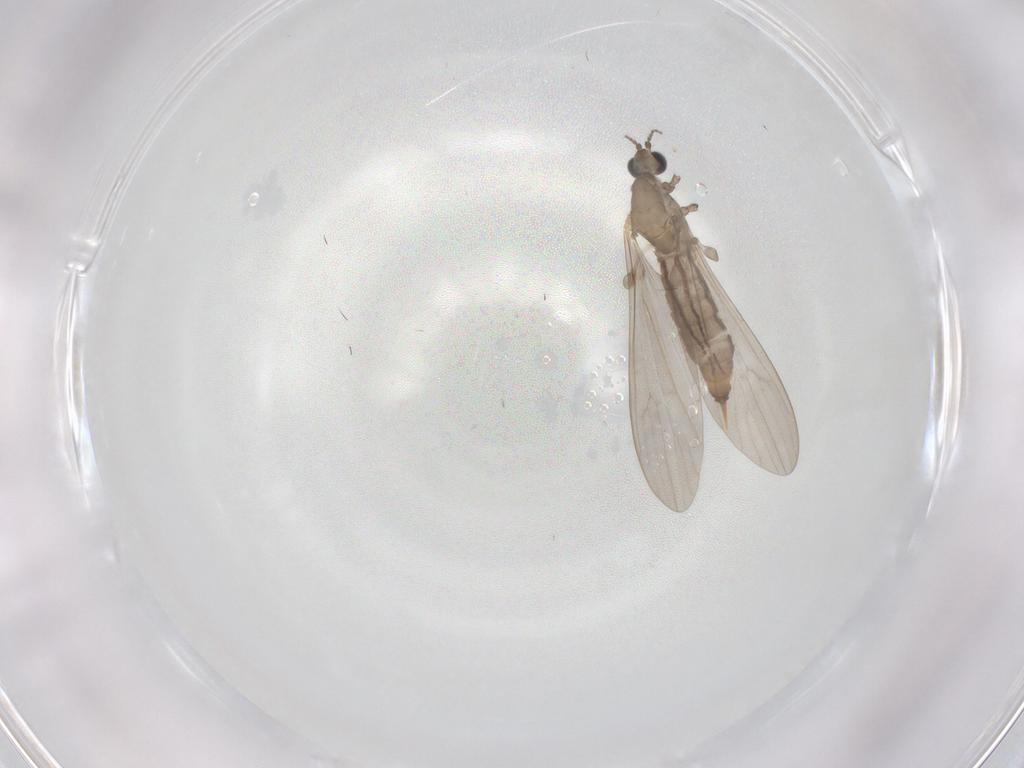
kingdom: Animalia
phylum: Arthropoda
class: Insecta
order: Diptera
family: Limoniidae
